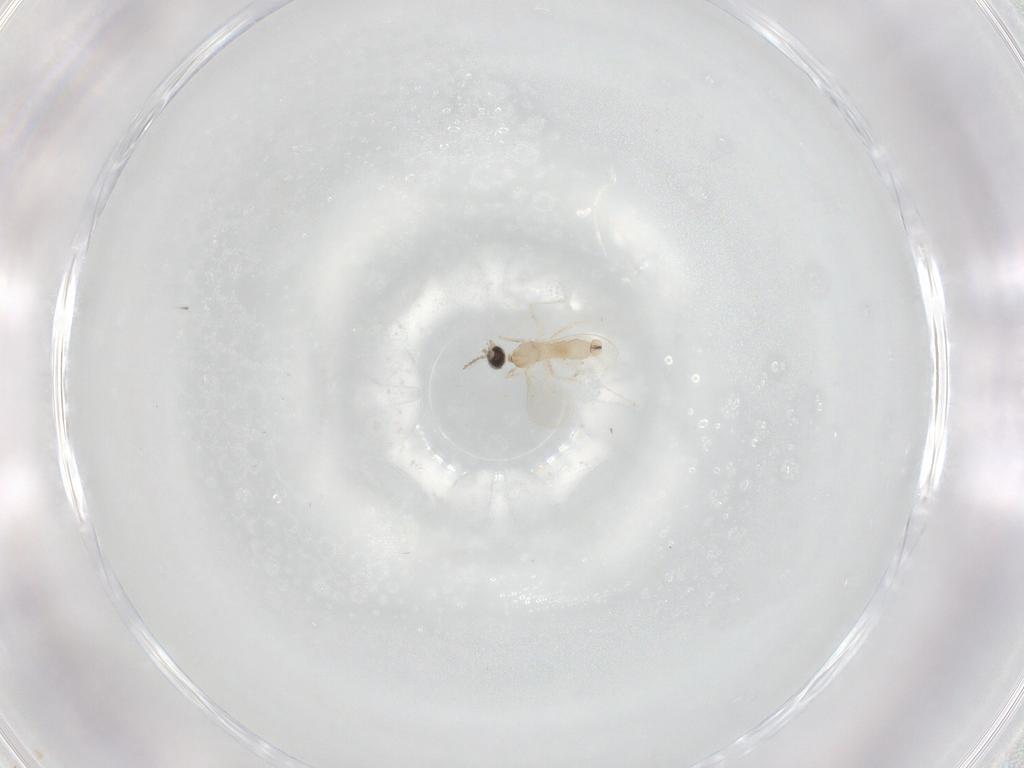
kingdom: Animalia
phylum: Arthropoda
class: Insecta
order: Diptera
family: Cecidomyiidae
